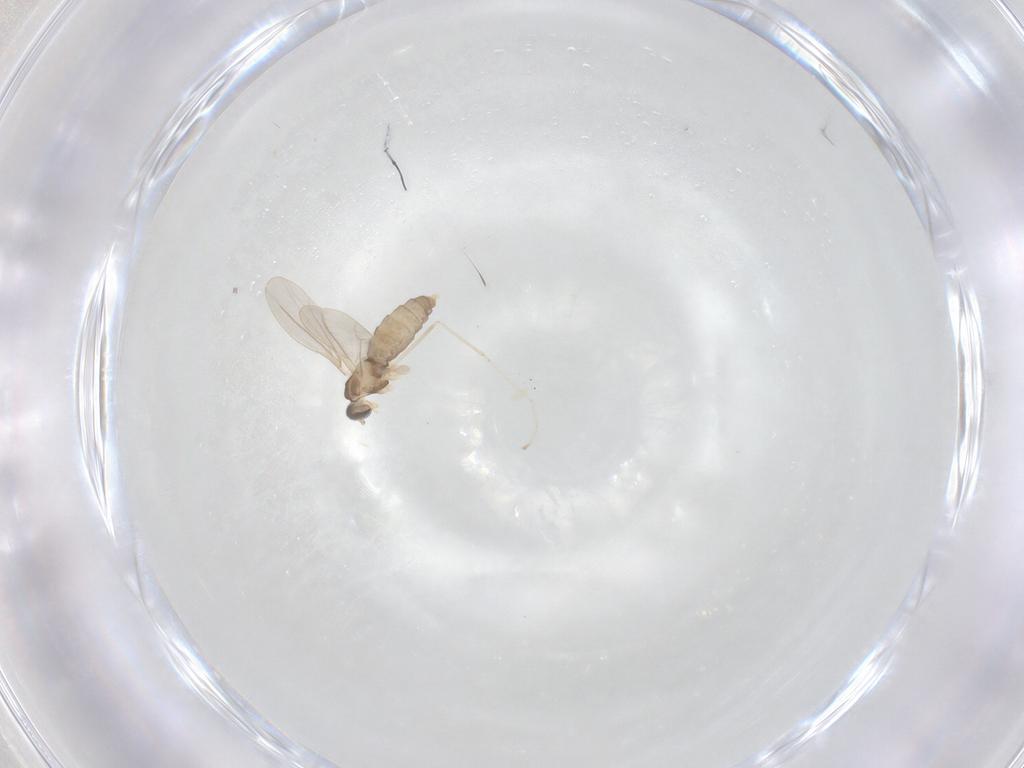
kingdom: Animalia
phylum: Arthropoda
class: Insecta
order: Diptera
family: Cecidomyiidae
